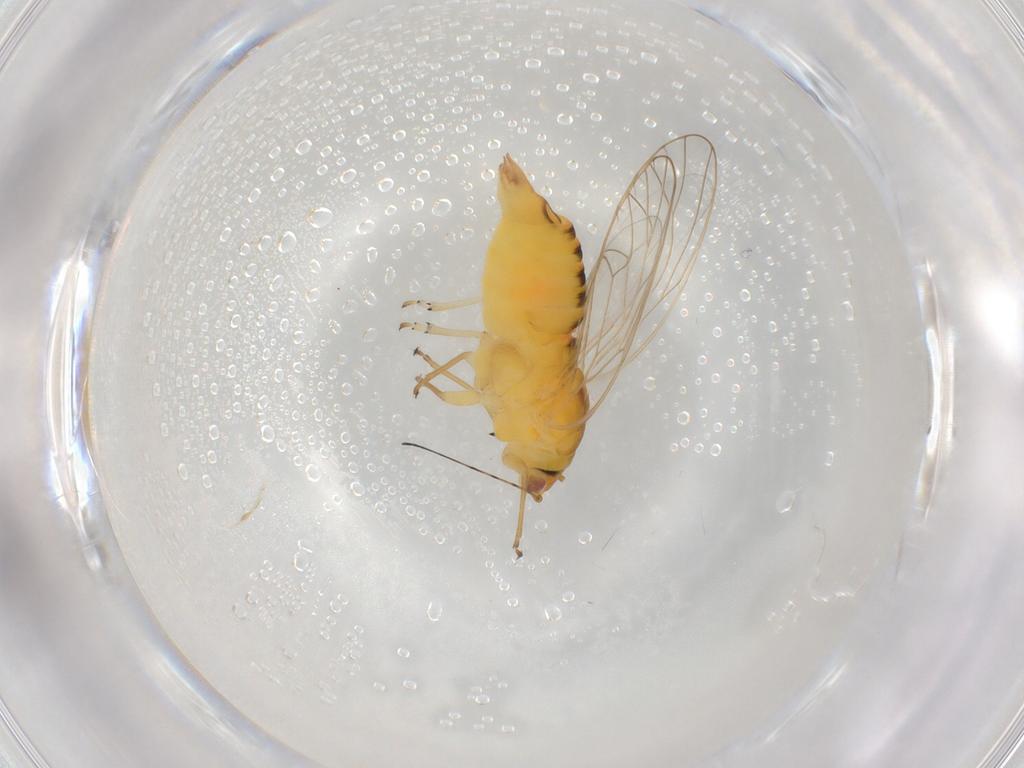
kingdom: Animalia
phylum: Arthropoda
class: Insecta
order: Hemiptera
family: Psyllidae
